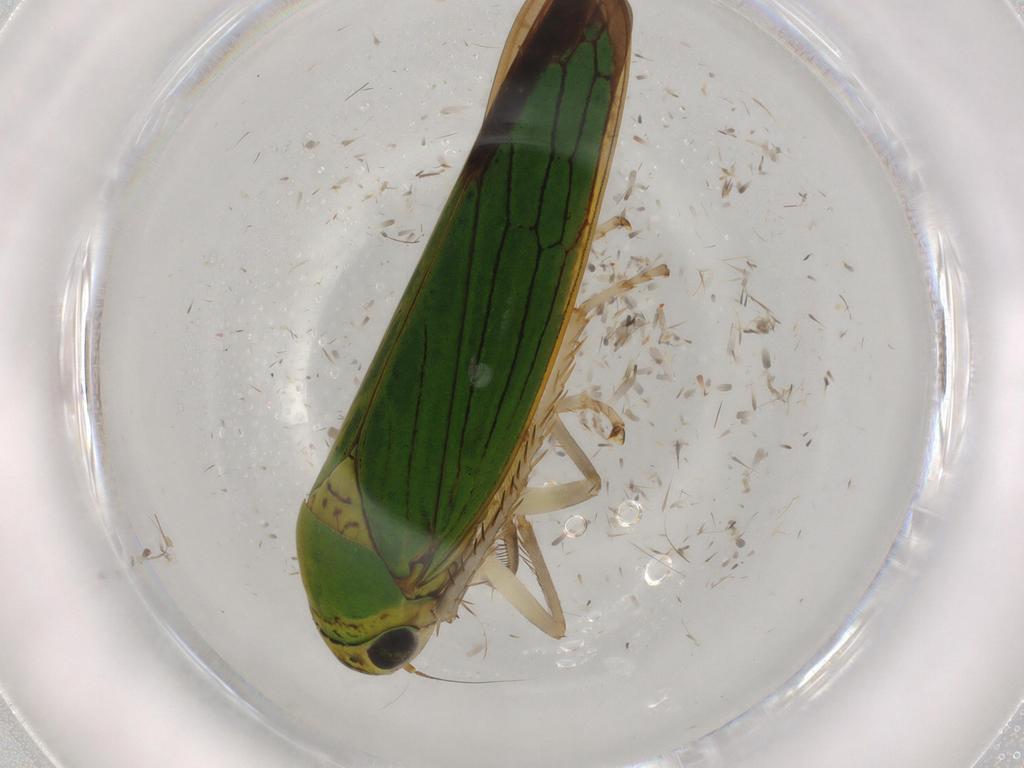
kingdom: Animalia
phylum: Arthropoda
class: Insecta
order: Hemiptera
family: Cicadellidae
